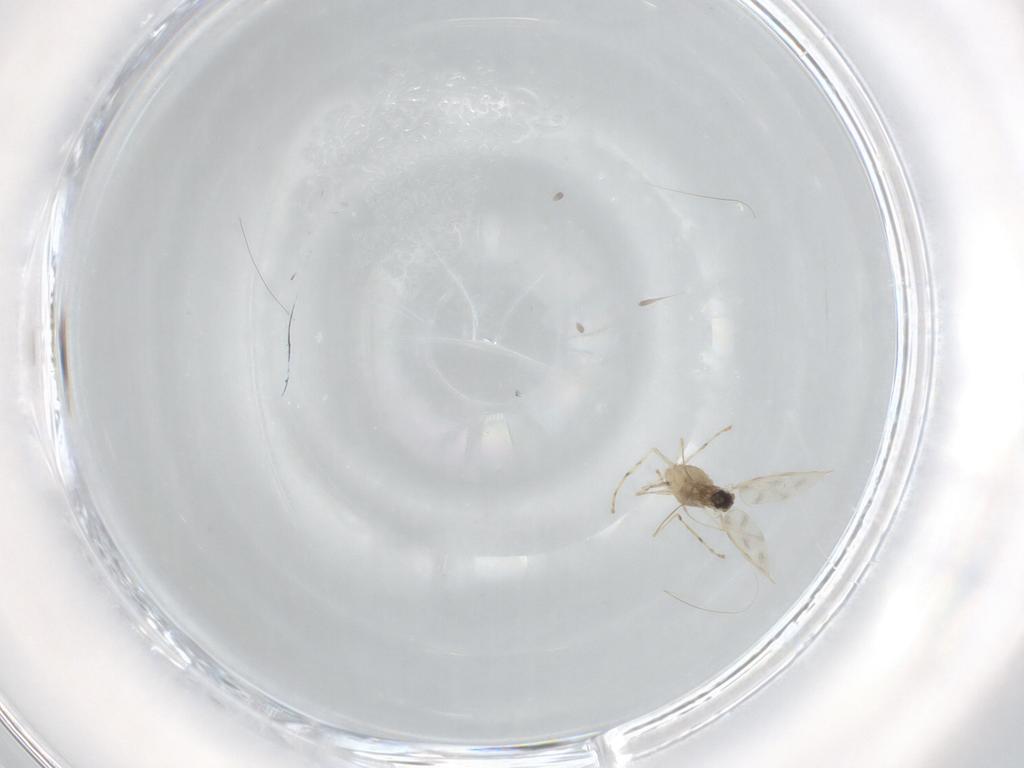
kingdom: Animalia
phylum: Arthropoda
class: Insecta
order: Diptera
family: Cecidomyiidae
